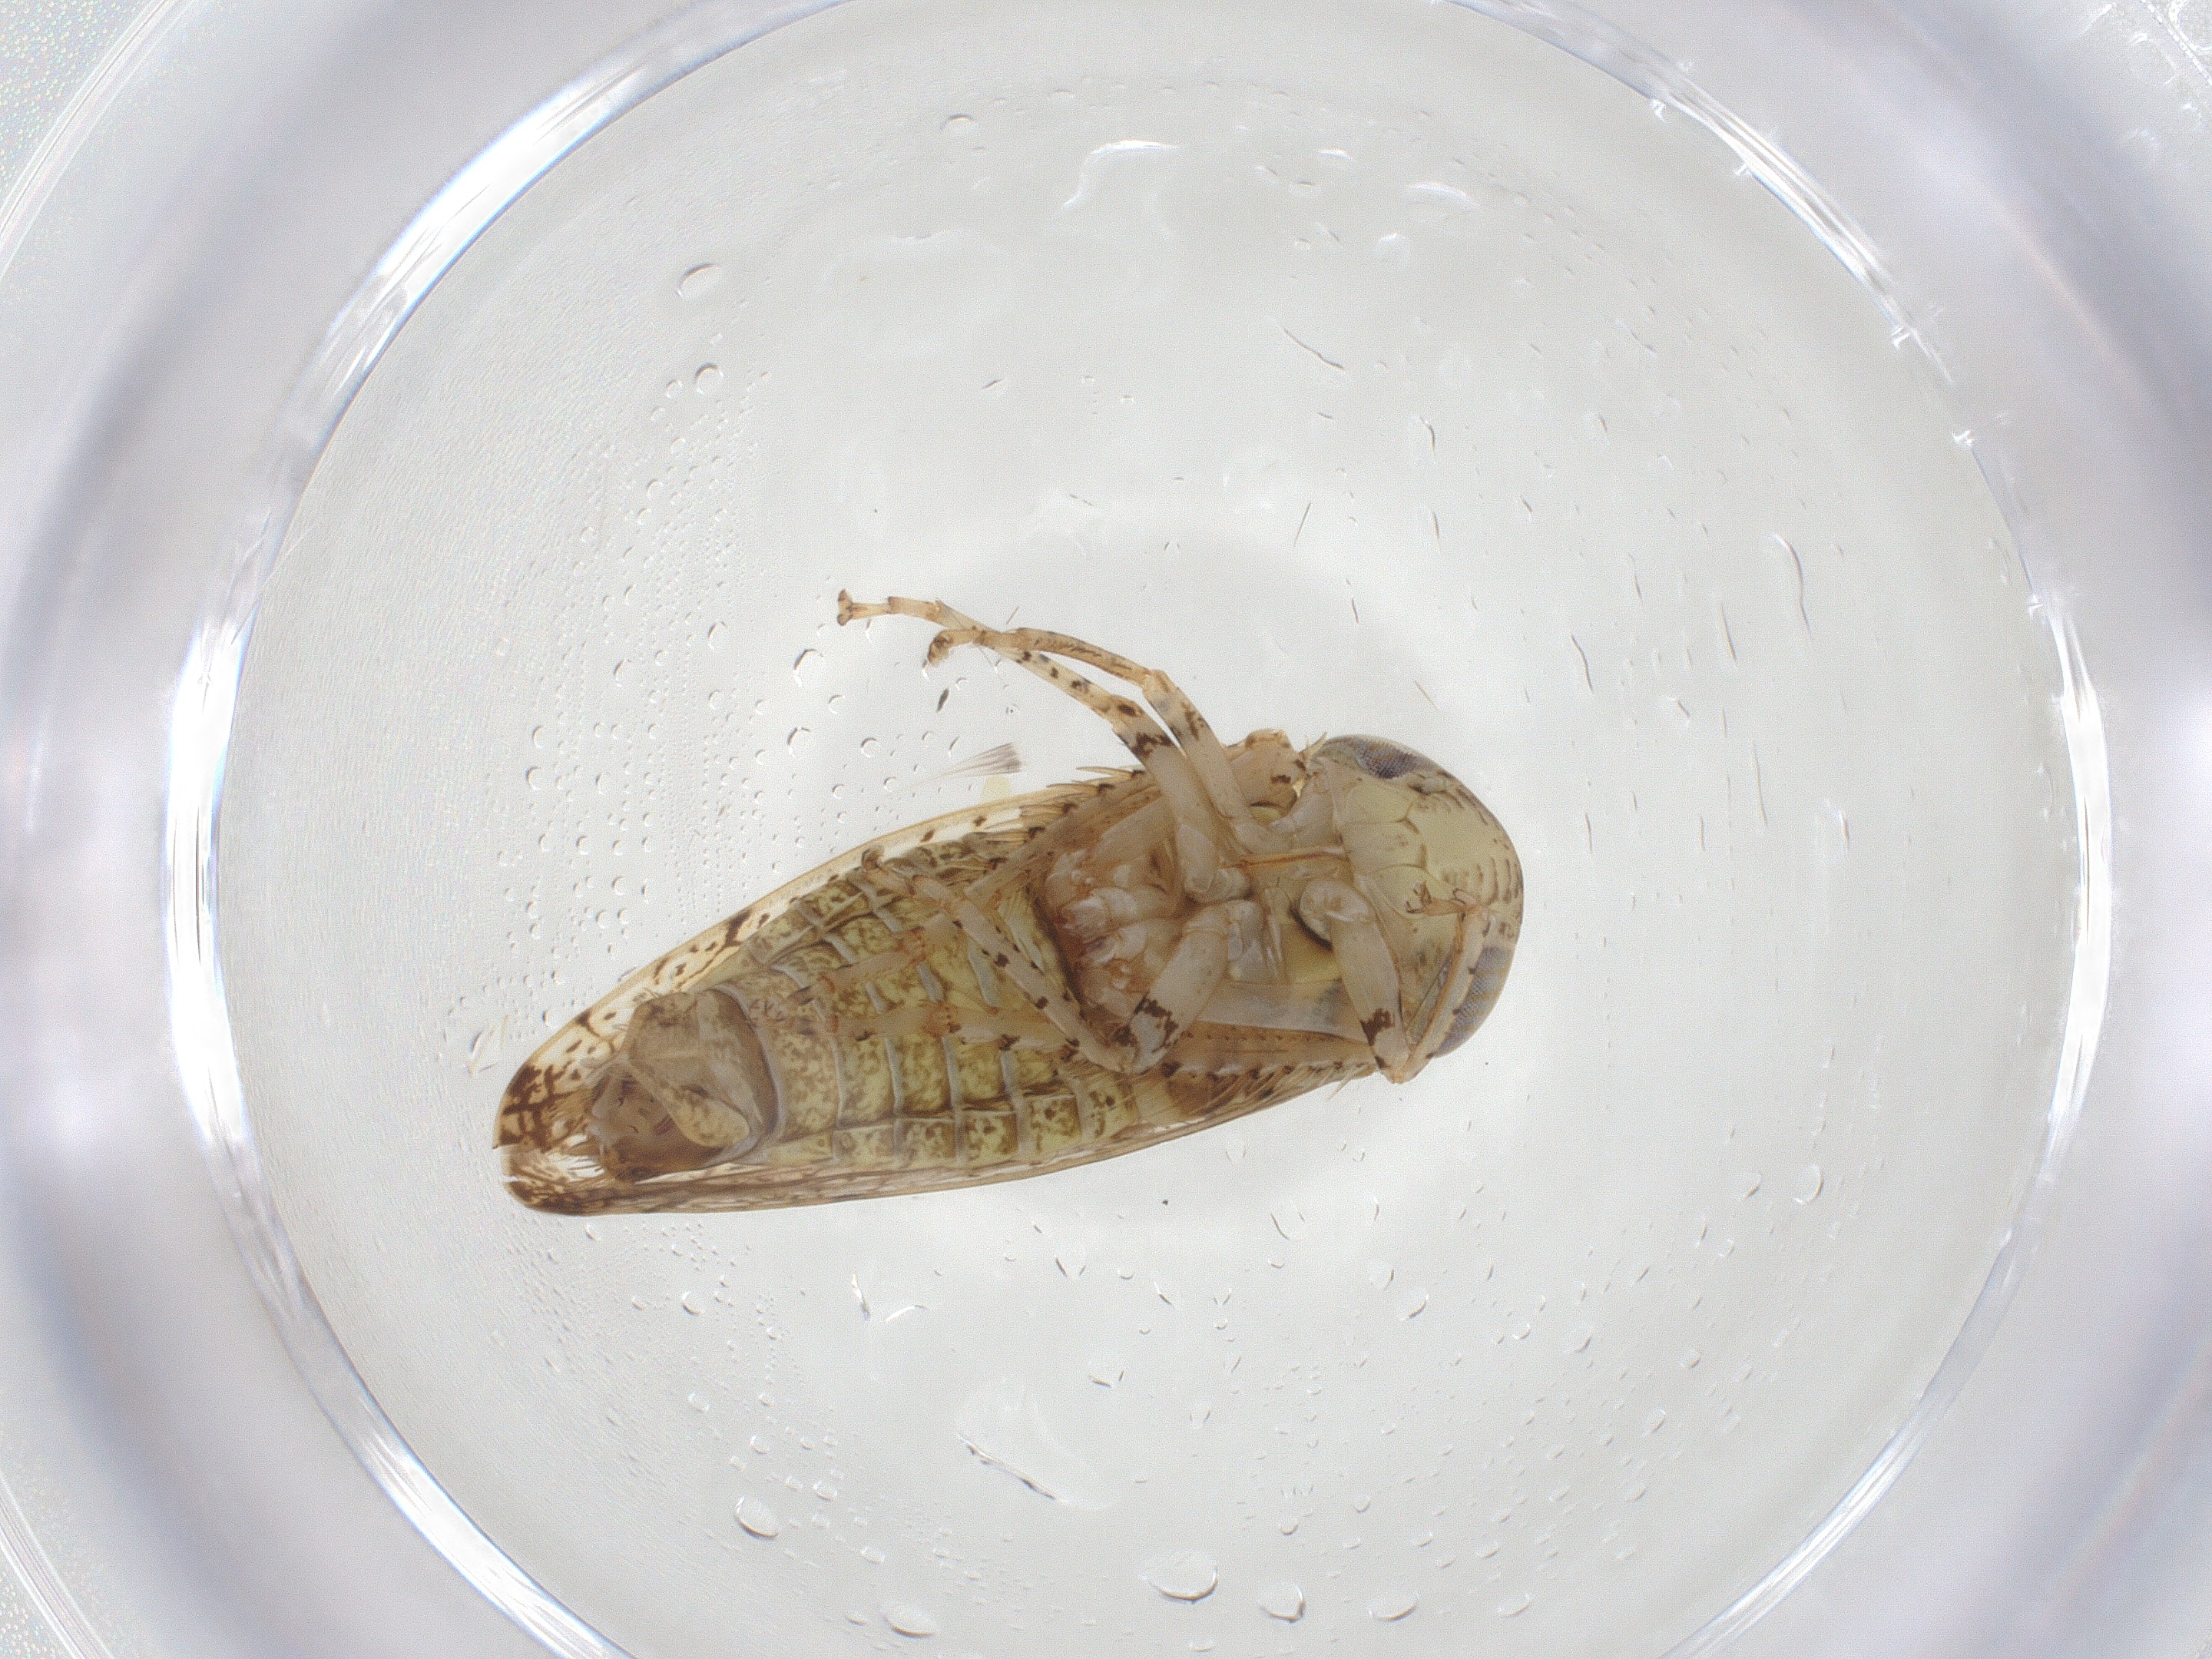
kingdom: Animalia
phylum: Arthropoda
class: Insecta
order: Hemiptera
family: Cicadellidae
